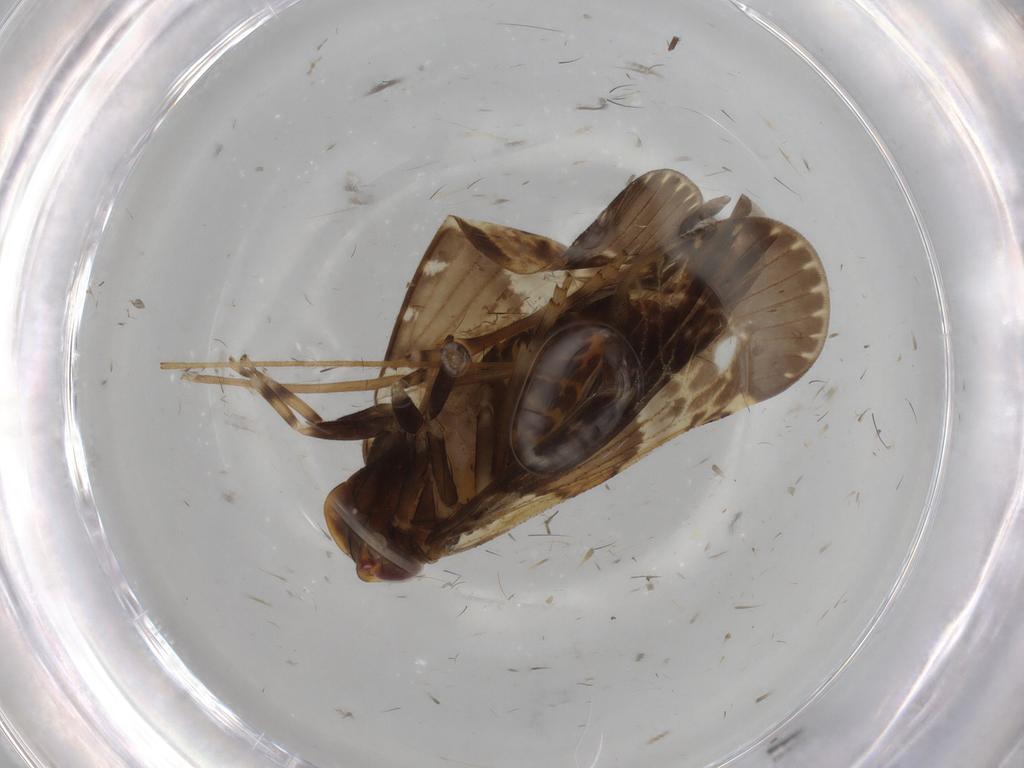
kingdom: Animalia
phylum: Arthropoda
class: Insecta
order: Hemiptera
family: Cixiidae
